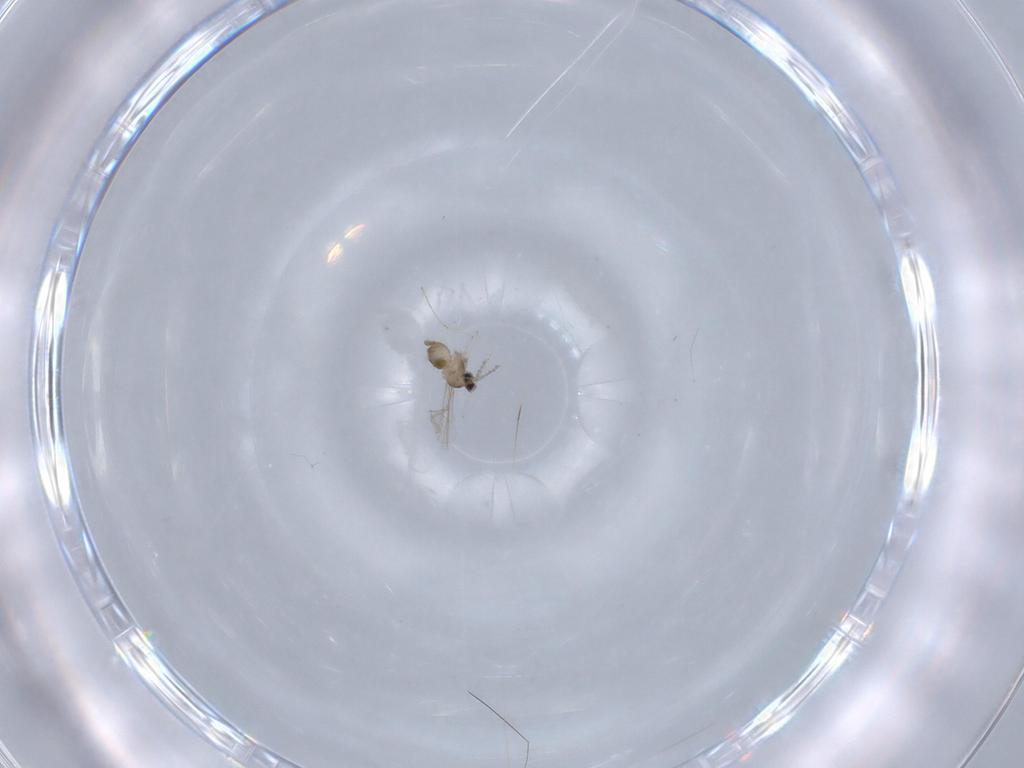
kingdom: Animalia
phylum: Arthropoda
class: Insecta
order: Diptera
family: Cecidomyiidae
